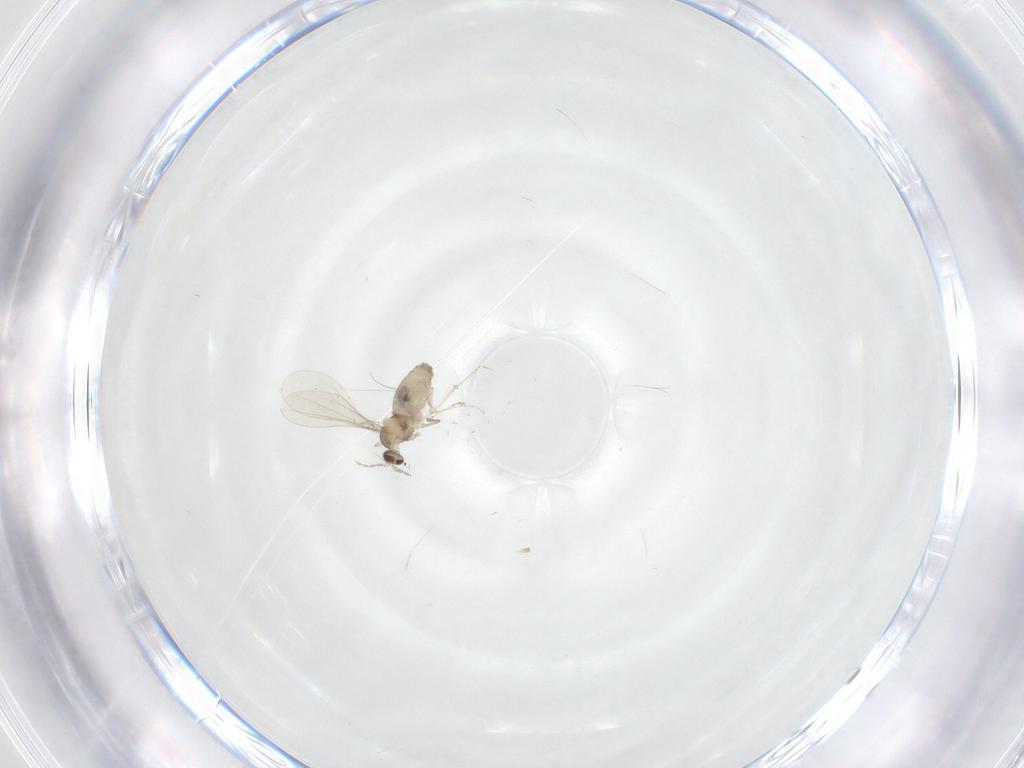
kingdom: Animalia
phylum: Arthropoda
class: Insecta
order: Diptera
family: Cecidomyiidae
